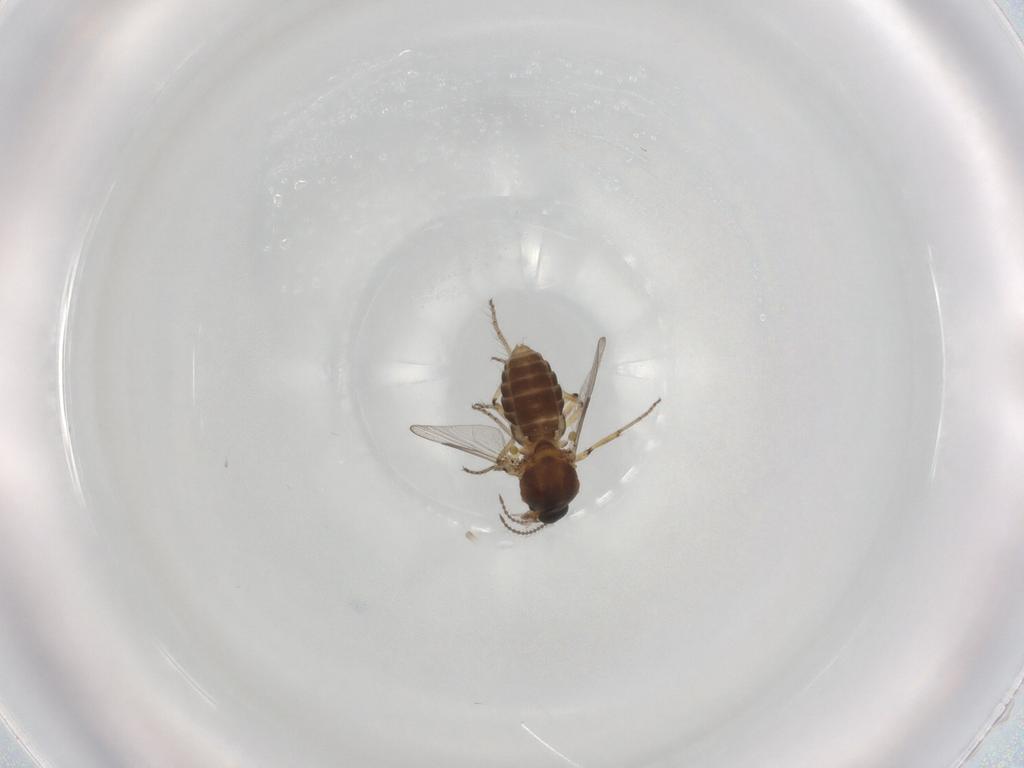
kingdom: Animalia
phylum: Arthropoda
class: Insecta
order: Diptera
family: Ceratopogonidae
